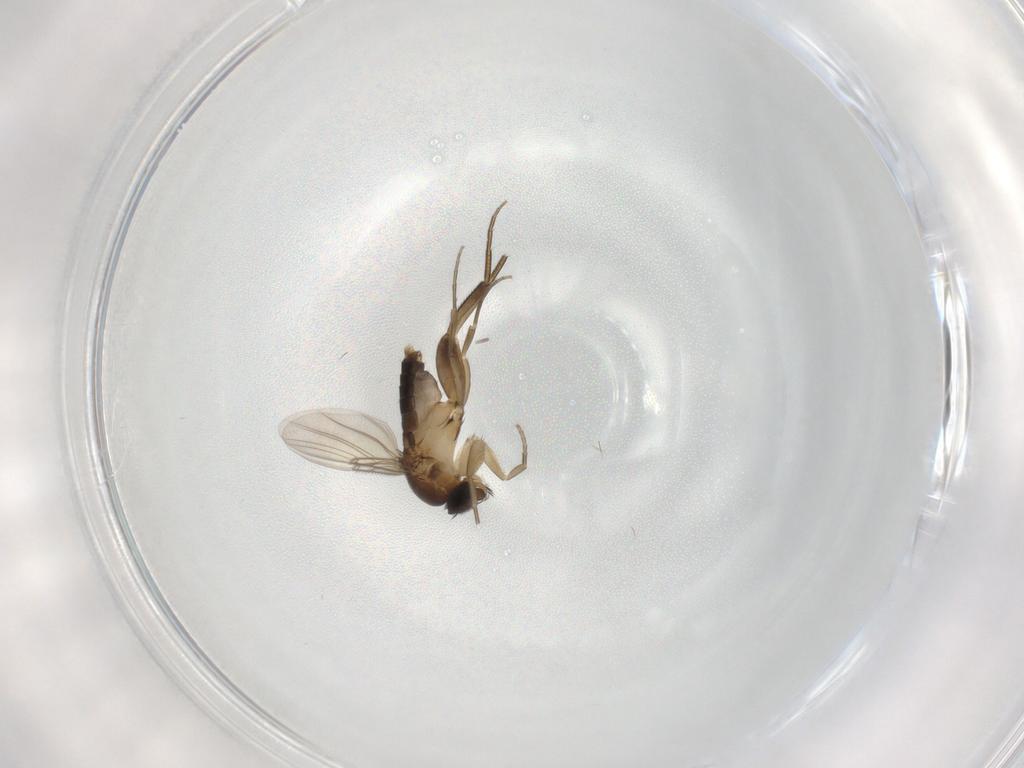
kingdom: Animalia
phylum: Arthropoda
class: Insecta
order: Diptera
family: Phoridae
